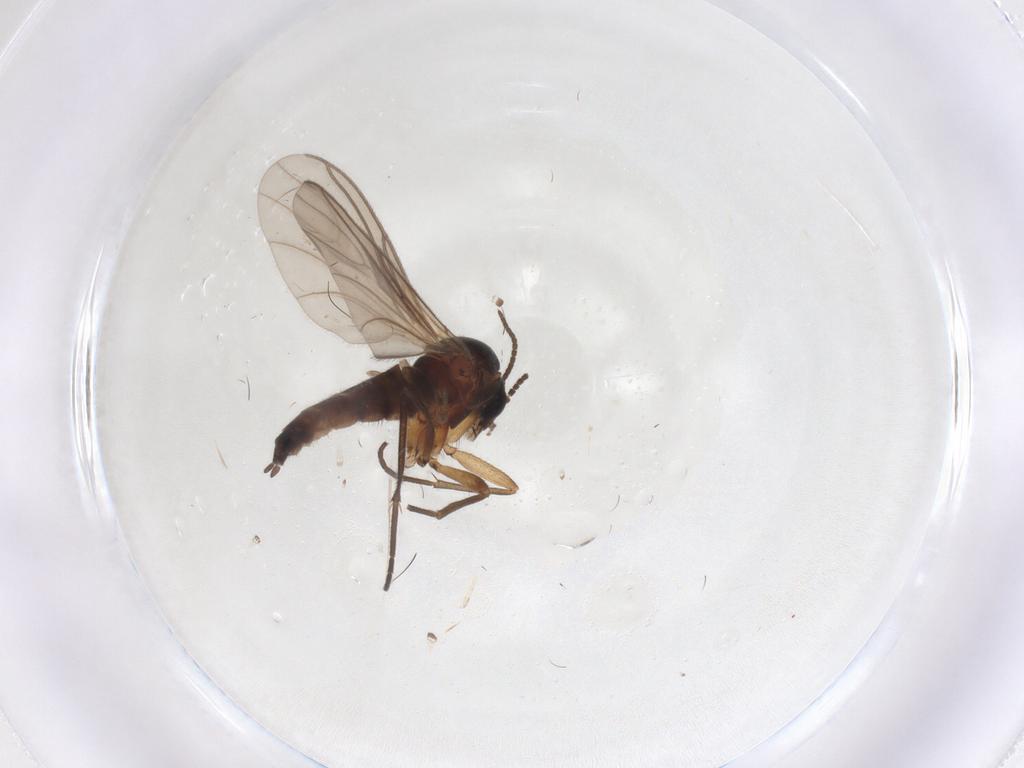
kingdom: Animalia
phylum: Arthropoda
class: Insecta
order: Diptera
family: Sciaridae
